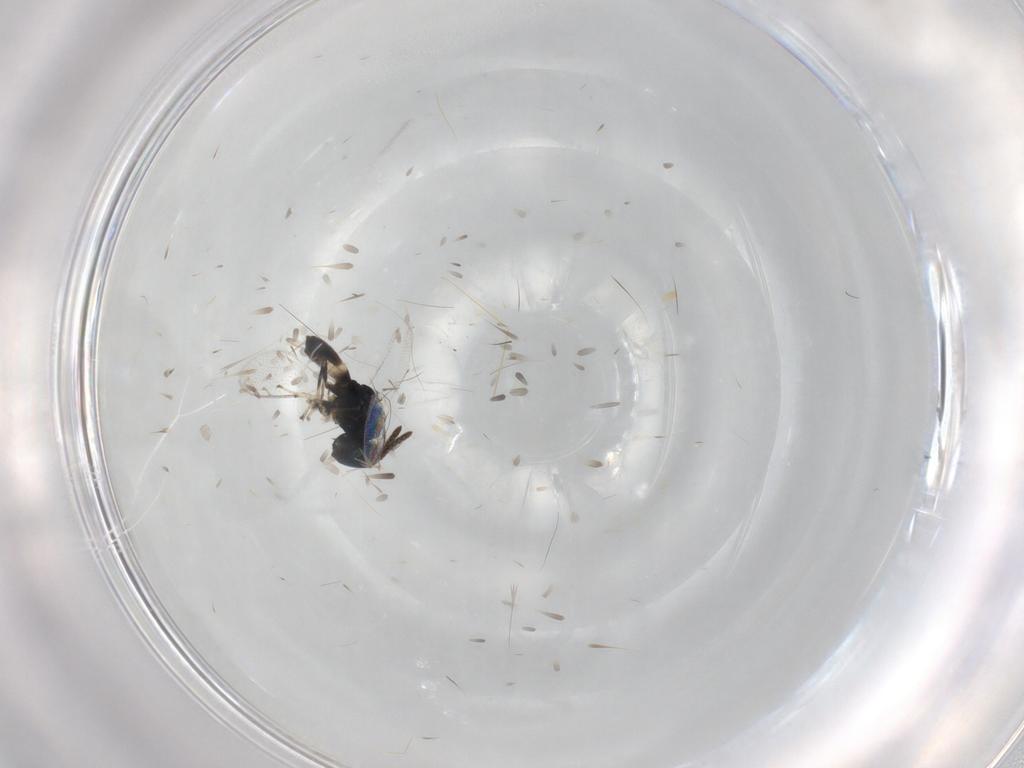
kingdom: Animalia
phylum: Arthropoda
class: Insecta
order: Hymenoptera
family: Pteromalidae
